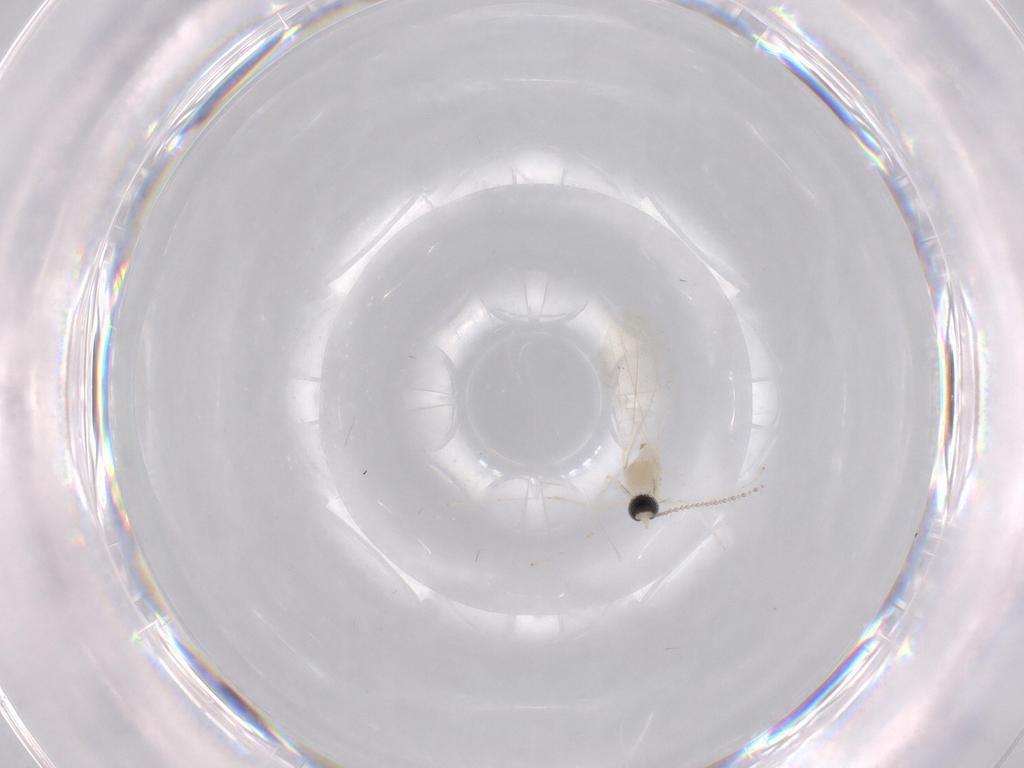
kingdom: Animalia
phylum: Arthropoda
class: Insecta
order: Diptera
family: Cecidomyiidae
